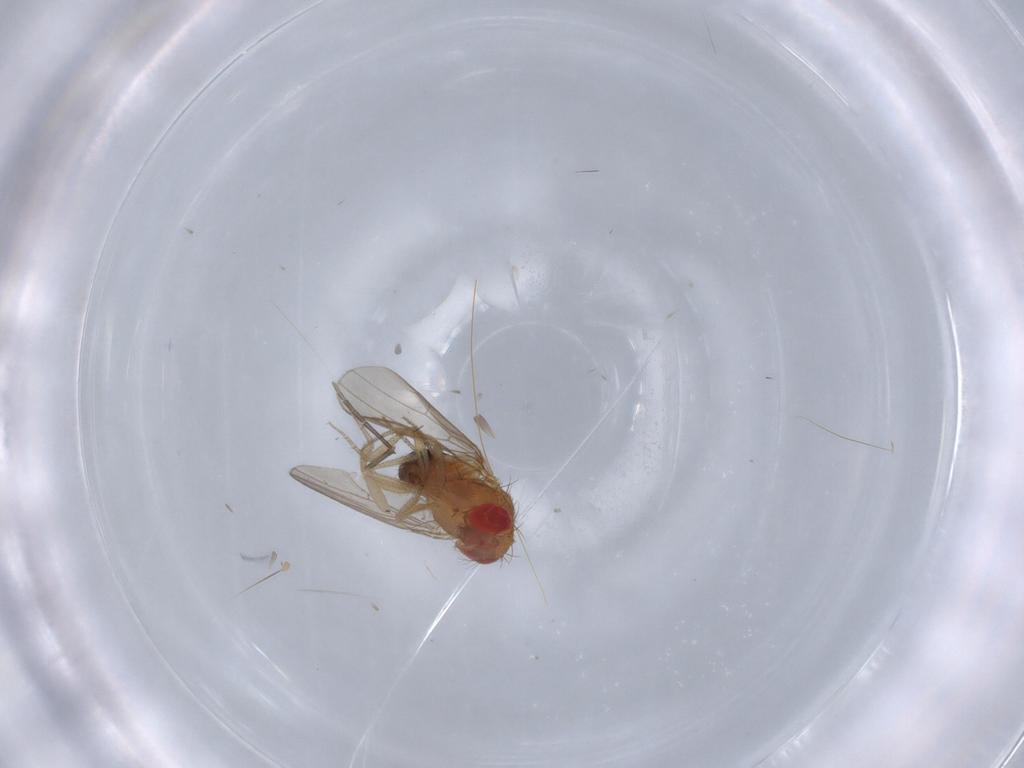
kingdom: Animalia
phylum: Arthropoda
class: Insecta
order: Diptera
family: Drosophilidae
